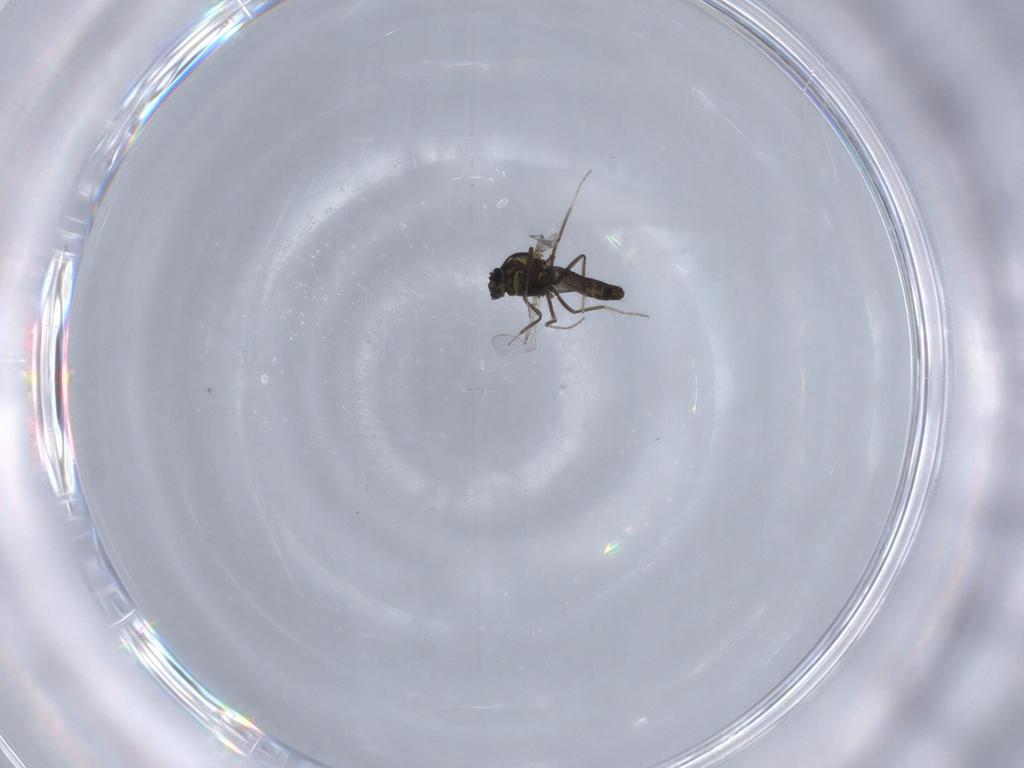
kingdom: Animalia
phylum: Arthropoda
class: Insecta
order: Diptera
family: Ceratopogonidae
